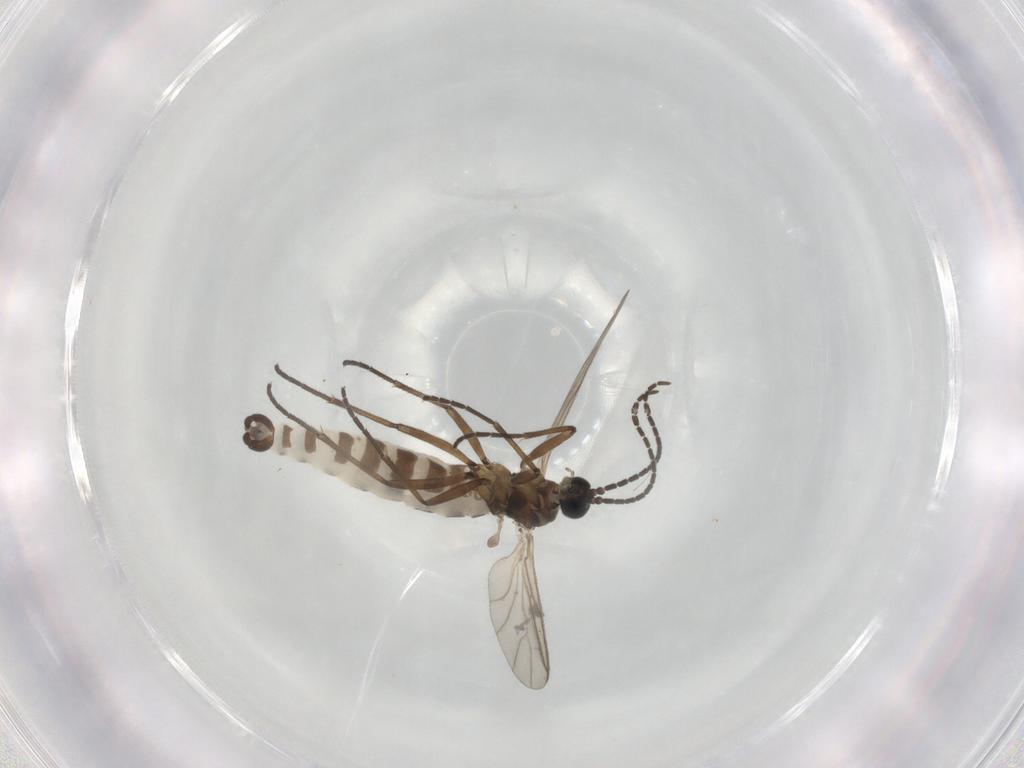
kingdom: Animalia
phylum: Arthropoda
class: Insecta
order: Diptera
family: Sciaridae
